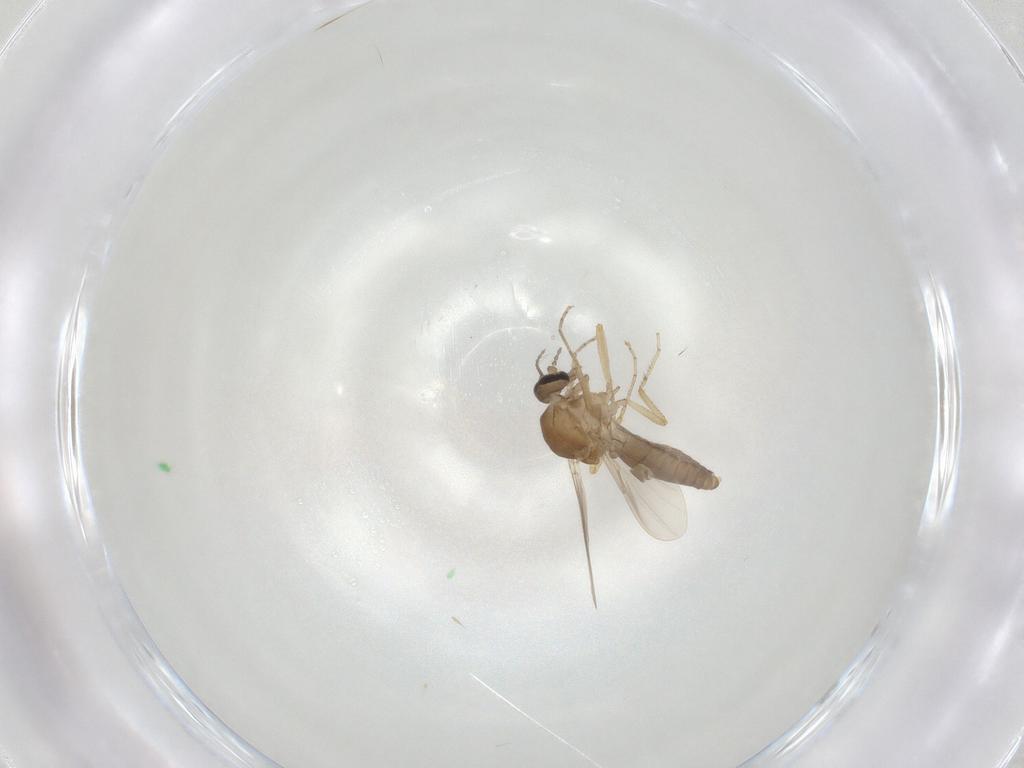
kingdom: Animalia
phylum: Arthropoda
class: Insecta
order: Diptera
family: Ceratopogonidae
